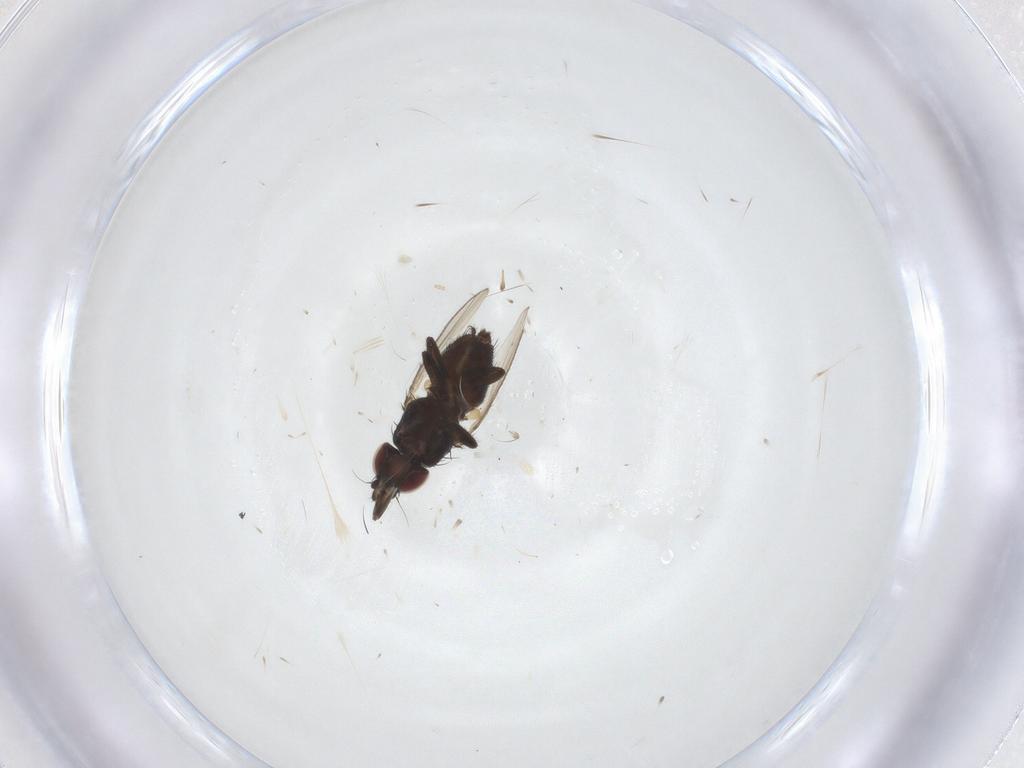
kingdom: Animalia
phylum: Arthropoda
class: Insecta
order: Diptera
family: Milichiidae
